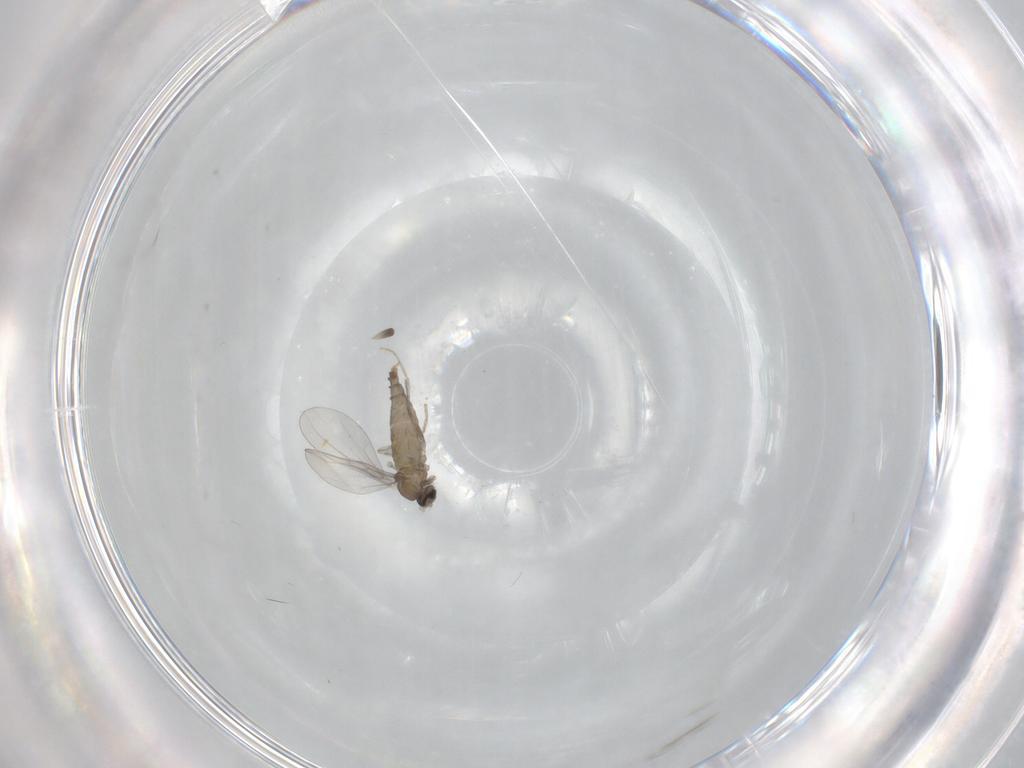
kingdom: Animalia
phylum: Arthropoda
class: Insecta
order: Diptera
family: Cecidomyiidae
